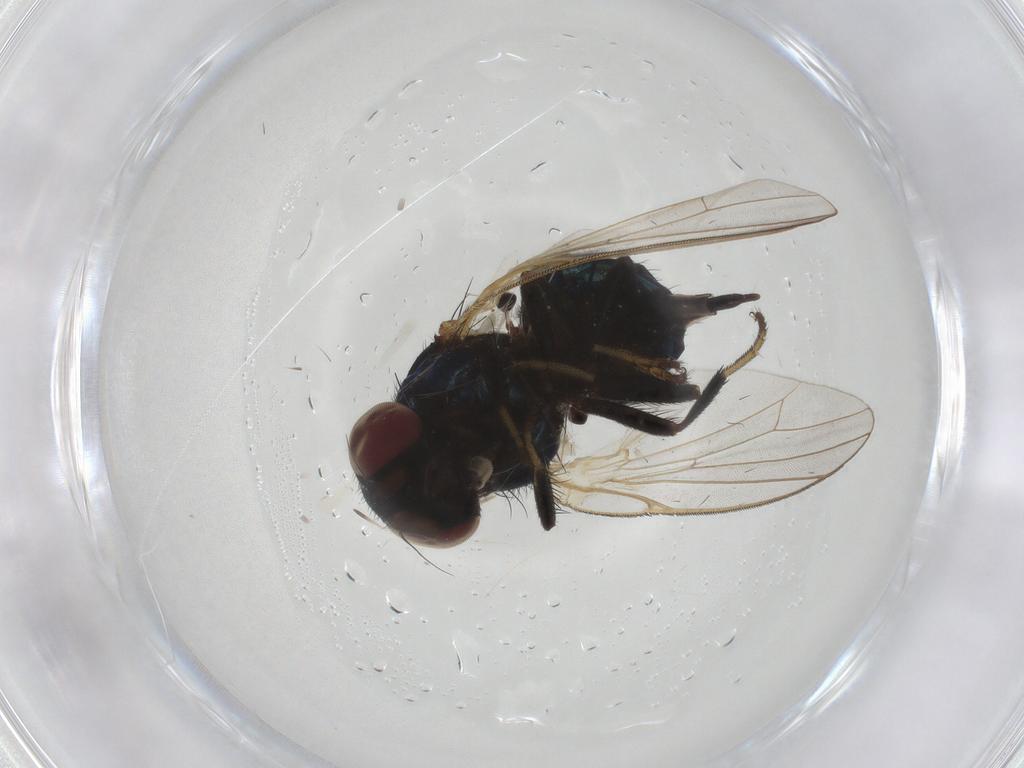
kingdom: Animalia
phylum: Arthropoda
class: Insecta
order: Diptera
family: Lonchaeidae
